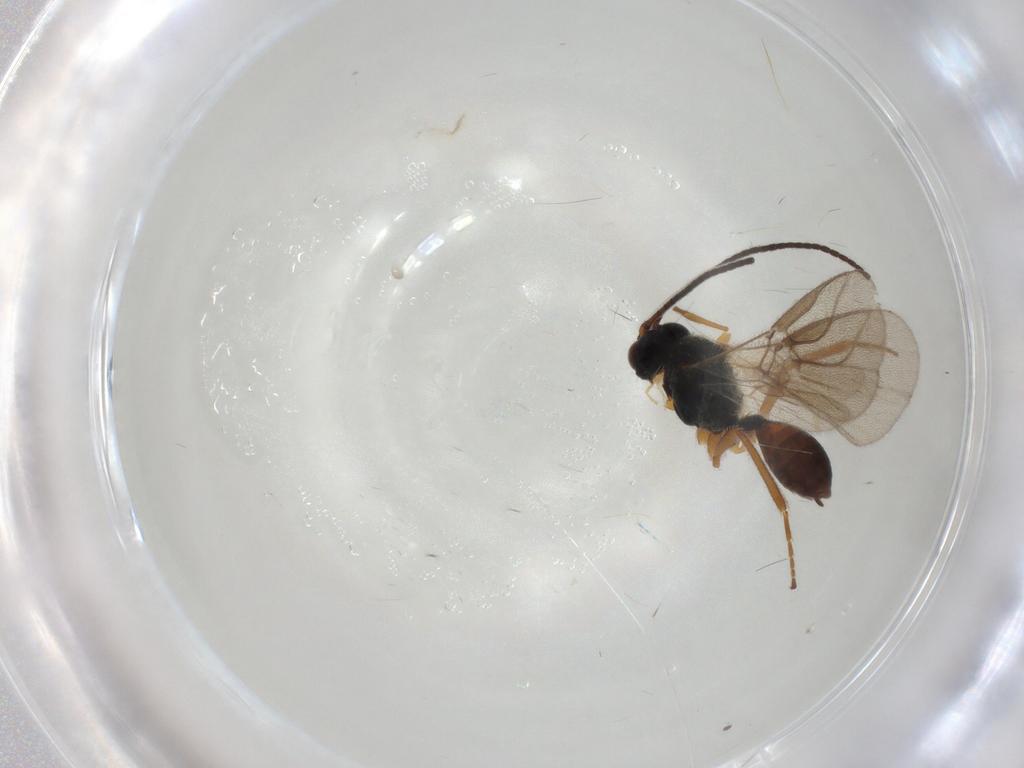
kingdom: Animalia
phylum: Arthropoda
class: Insecta
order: Hymenoptera
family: Braconidae
